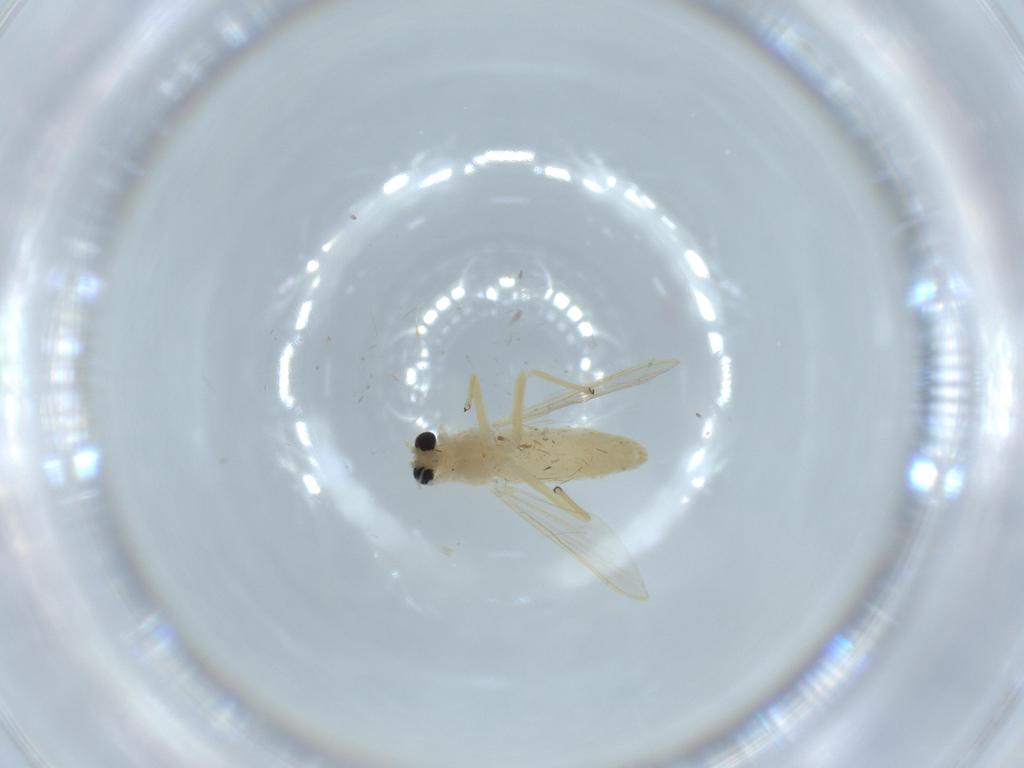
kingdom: Animalia
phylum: Arthropoda
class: Insecta
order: Diptera
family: Chironomidae
